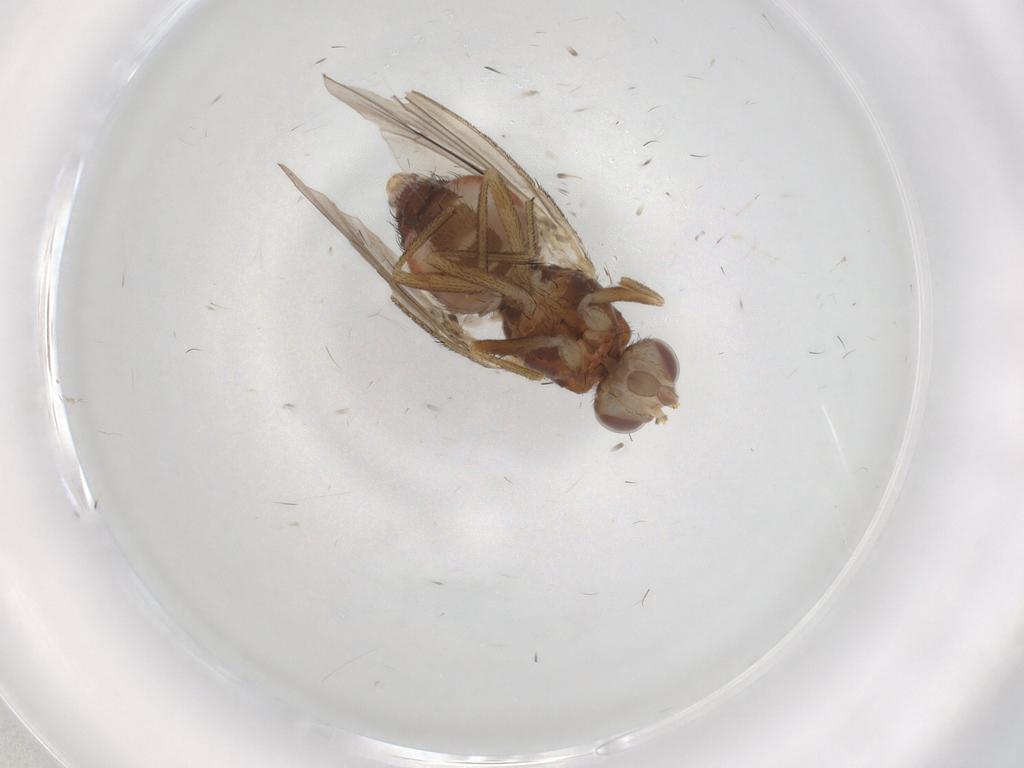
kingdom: Animalia
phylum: Arthropoda
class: Insecta
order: Diptera
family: Heleomyzidae
